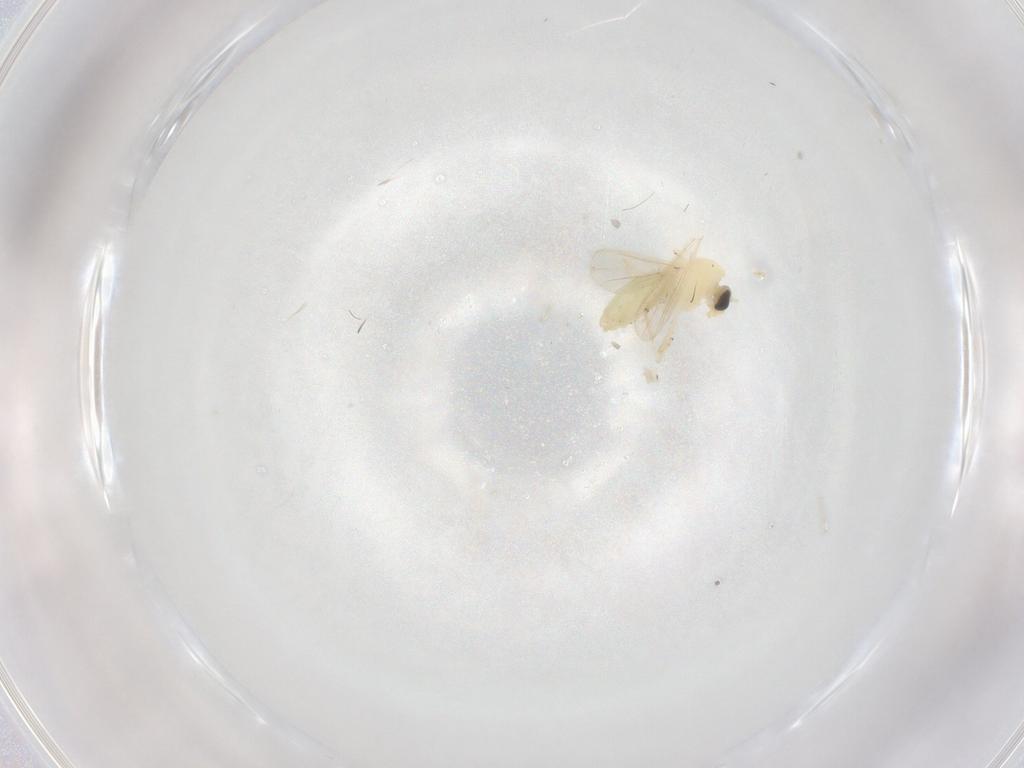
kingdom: Animalia
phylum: Arthropoda
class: Insecta
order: Diptera
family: Chironomidae
